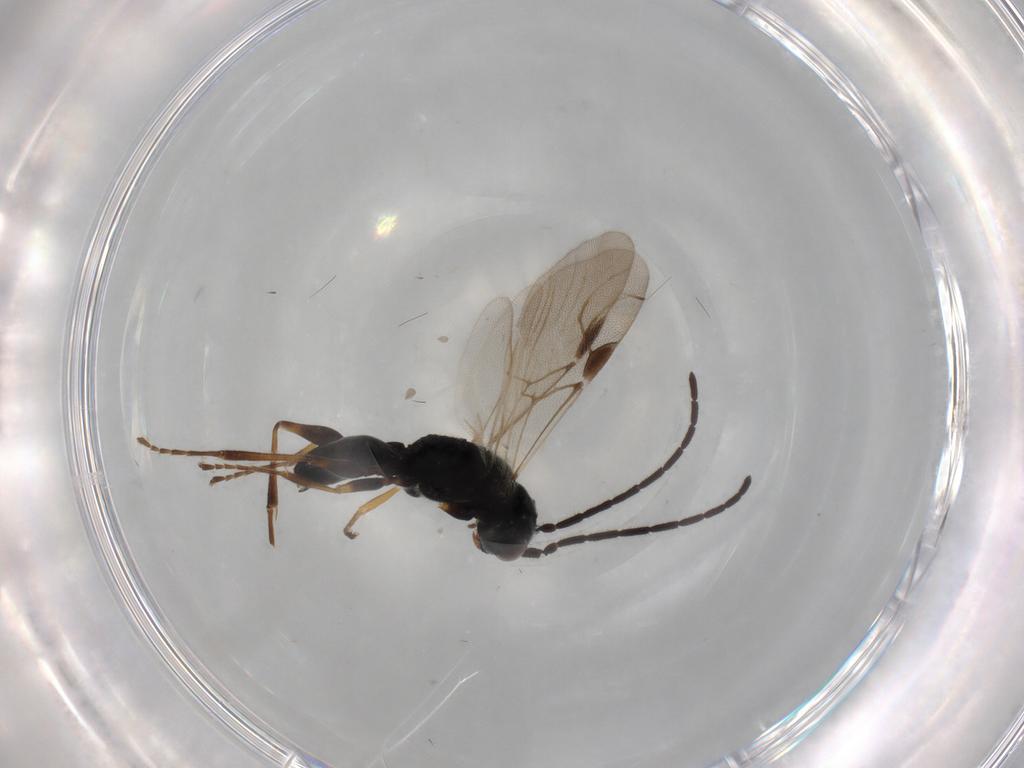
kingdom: Animalia
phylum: Arthropoda
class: Insecta
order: Hymenoptera
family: Dryinidae
